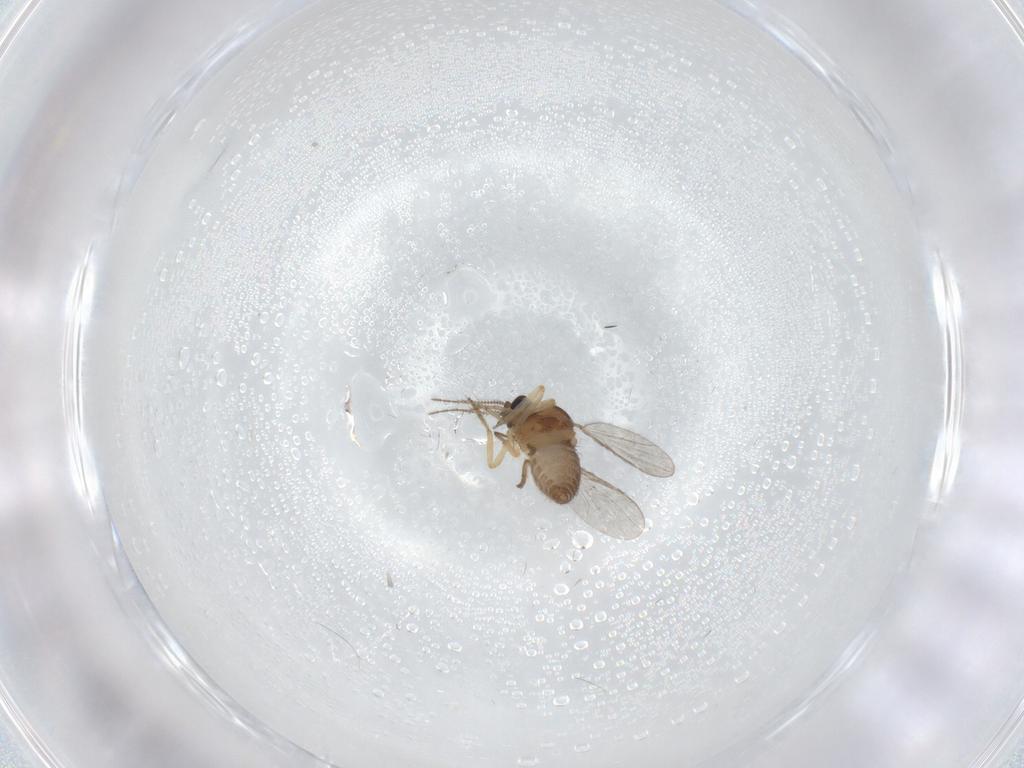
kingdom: Animalia
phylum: Arthropoda
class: Insecta
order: Diptera
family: Ceratopogonidae
